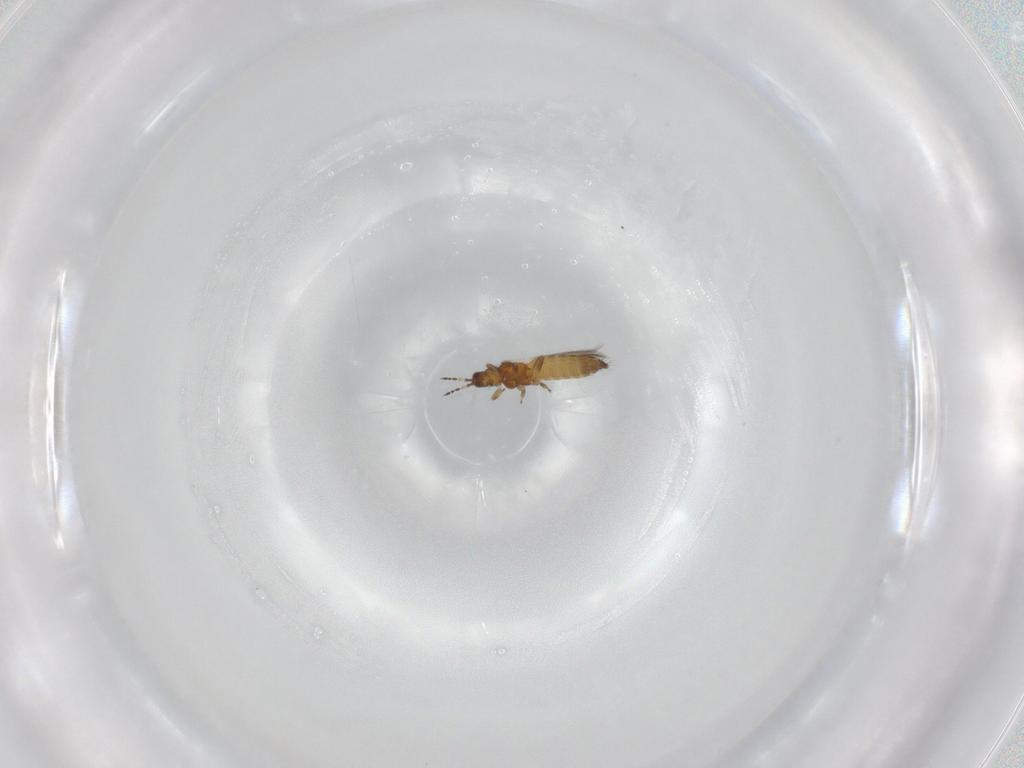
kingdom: Animalia
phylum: Arthropoda
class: Insecta
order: Thysanoptera
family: Thripidae
